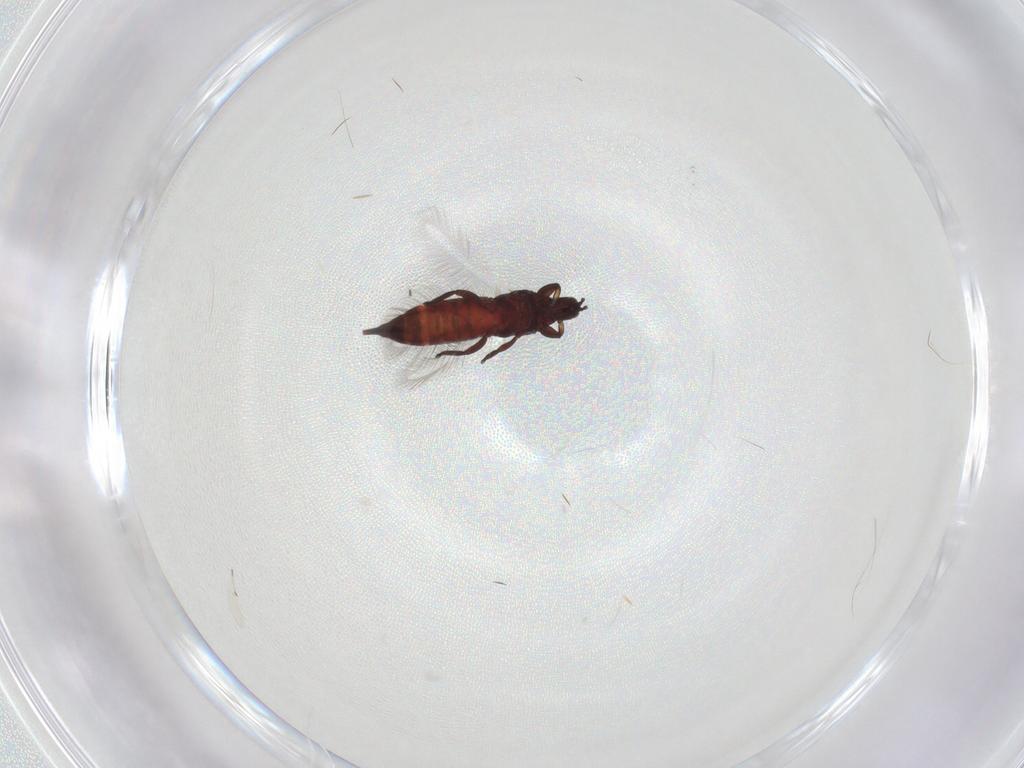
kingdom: Animalia
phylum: Arthropoda
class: Insecta
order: Thysanoptera
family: Phlaeothripidae
